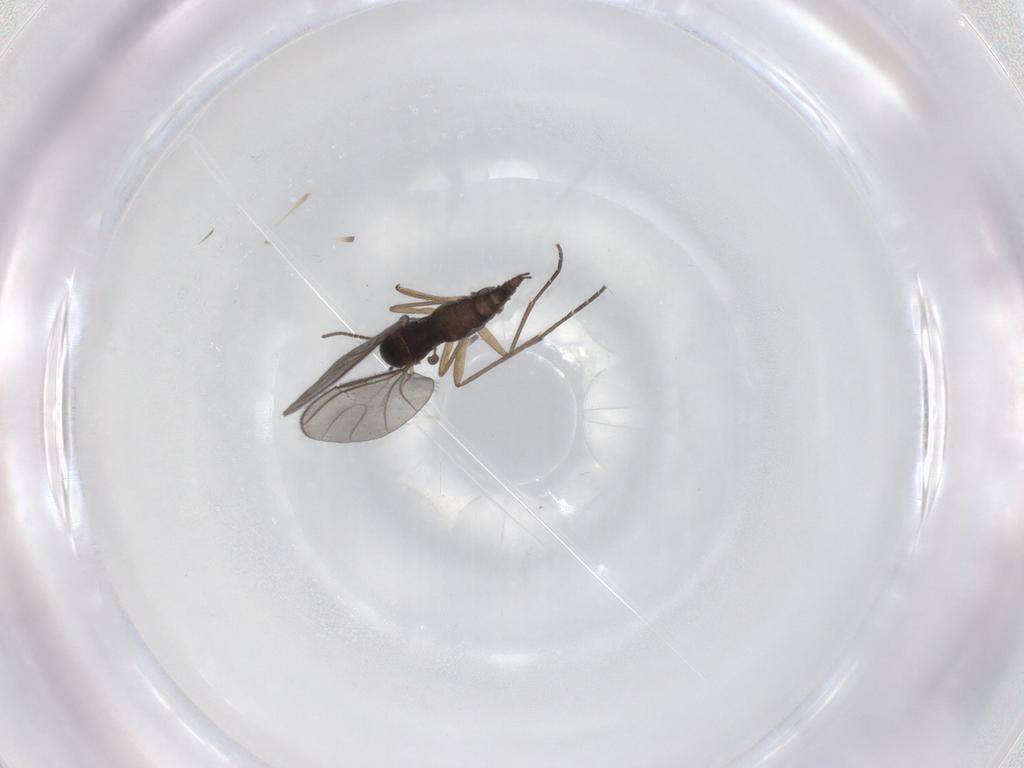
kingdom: Animalia
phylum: Arthropoda
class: Insecta
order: Diptera
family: Sciaridae
